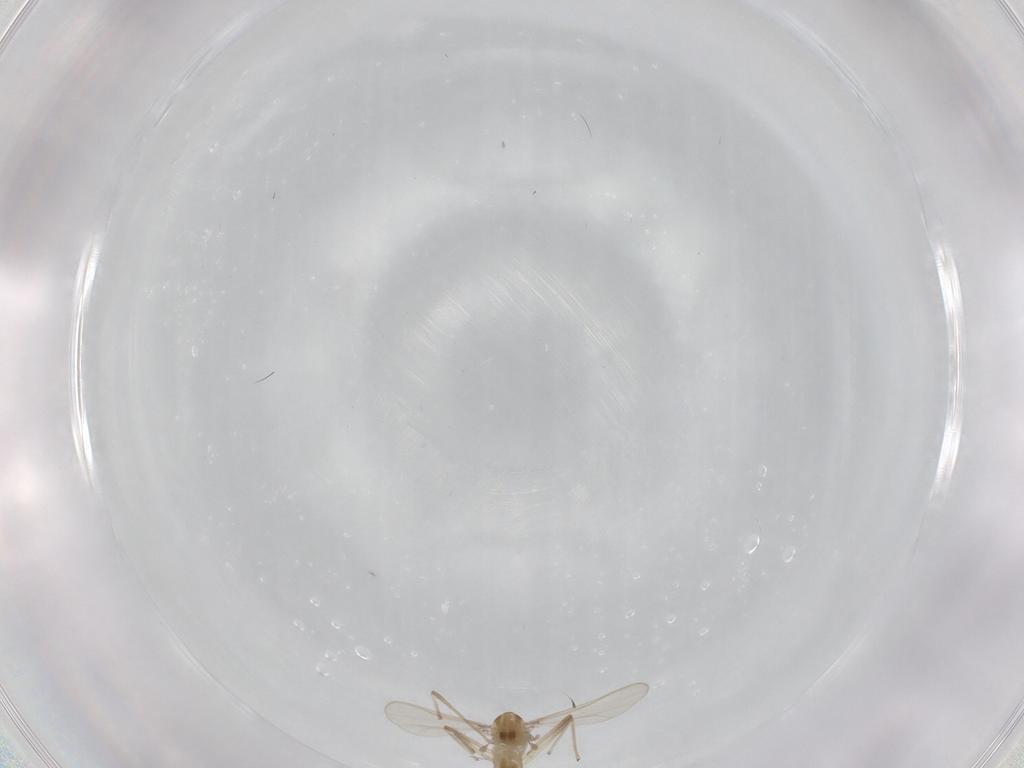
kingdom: Animalia
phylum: Arthropoda
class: Insecta
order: Diptera
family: Chironomidae
